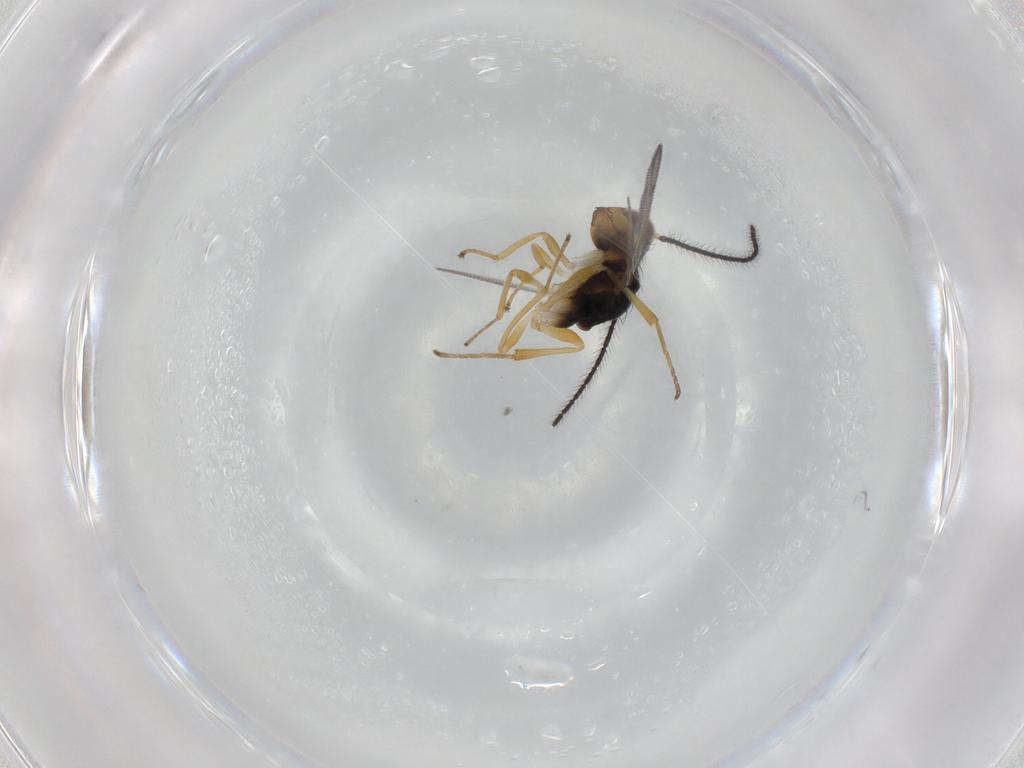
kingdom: Animalia
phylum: Arthropoda
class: Insecta
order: Hymenoptera
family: Formicidae
